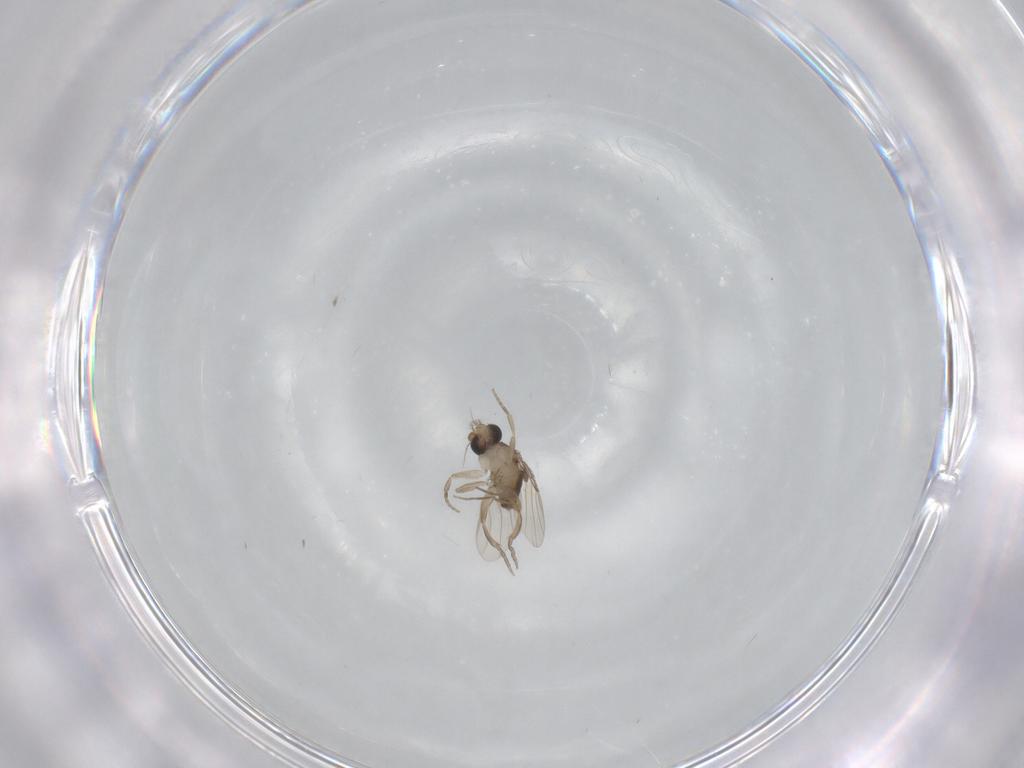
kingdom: Animalia
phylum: Arthropoda
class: Insecta
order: Diptera
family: Phoridae
